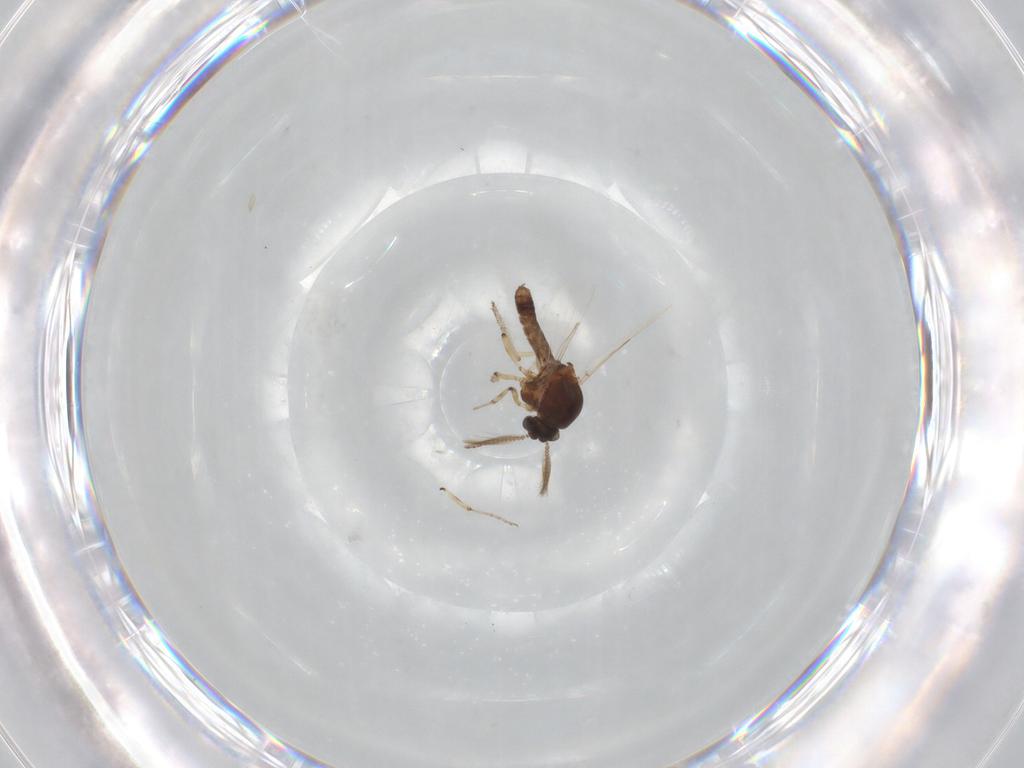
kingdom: Animalia
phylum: Arthropoda
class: Insecta
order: Diptera
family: Ceratopogonidae
